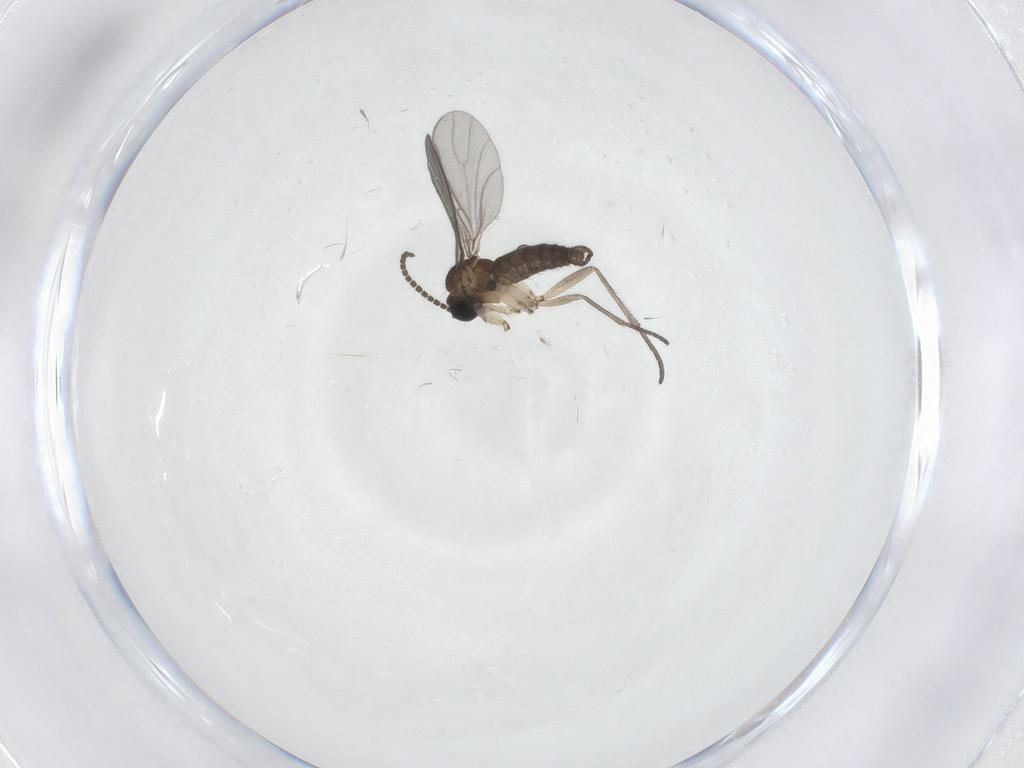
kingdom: Animalia
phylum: Arthropoda
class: Insecta
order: Diptera
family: Sciaridae
